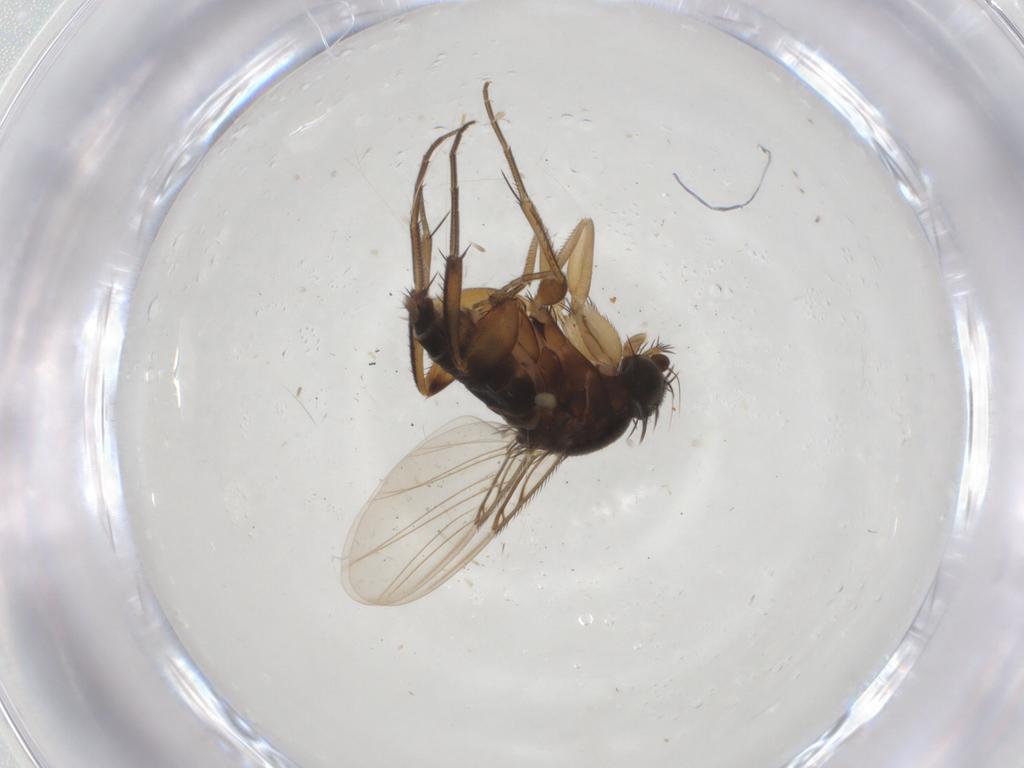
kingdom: Animalia
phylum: Arthropoda
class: Insecta
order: Diptera
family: Phoridae
